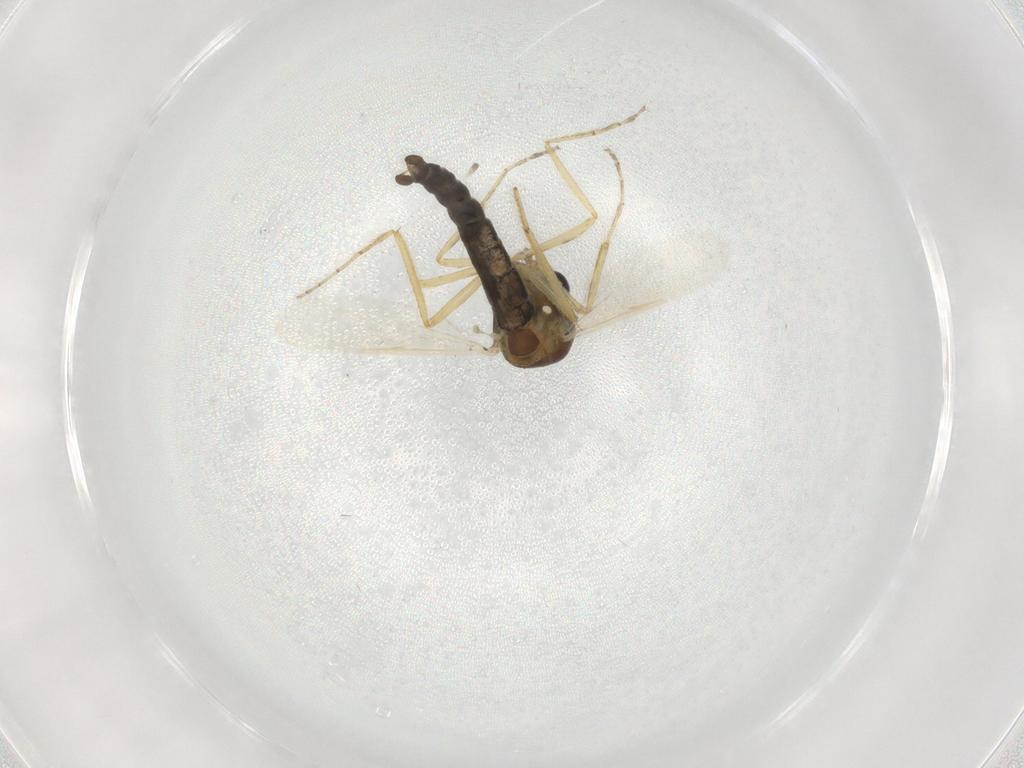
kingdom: Animalia
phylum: Arthropoda
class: Insecta
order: Diptera
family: Ceratopogonidae
